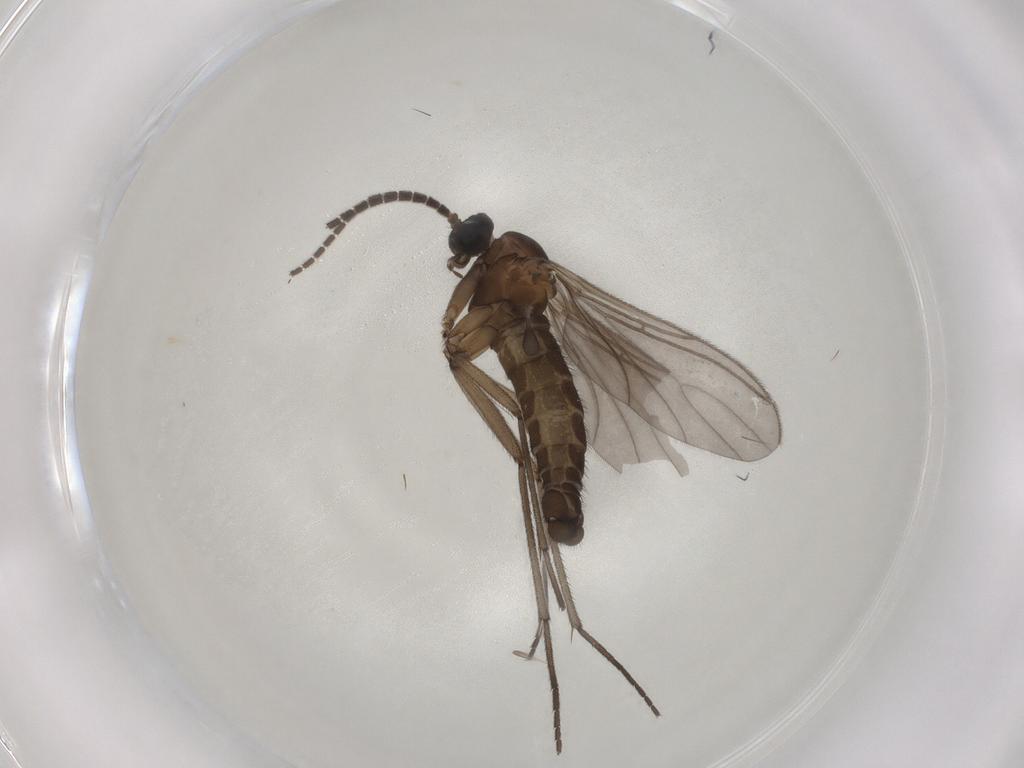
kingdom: Animalia
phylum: Arthropoda
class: Insecta
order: Diptera
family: Sciaridae
